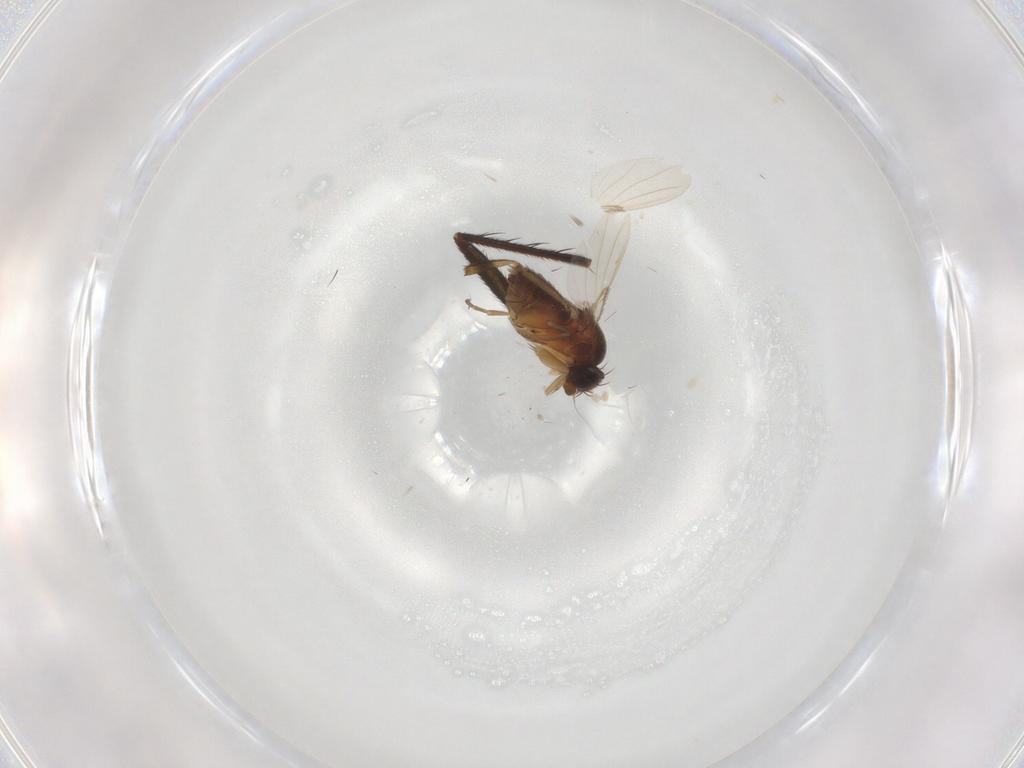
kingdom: Animalia
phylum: Arthropoda
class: Insecta
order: Diptera
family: Dolichopodidae
